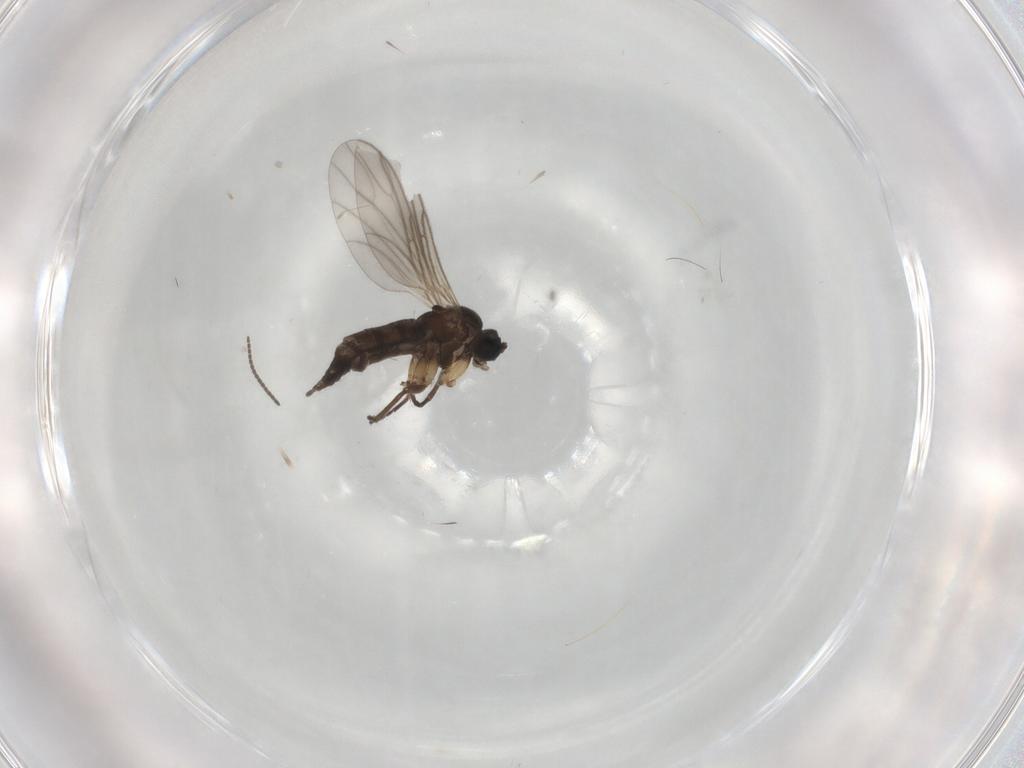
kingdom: Animalia
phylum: Arthropoda
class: Insecta
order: Diptera
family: Sciaridae
